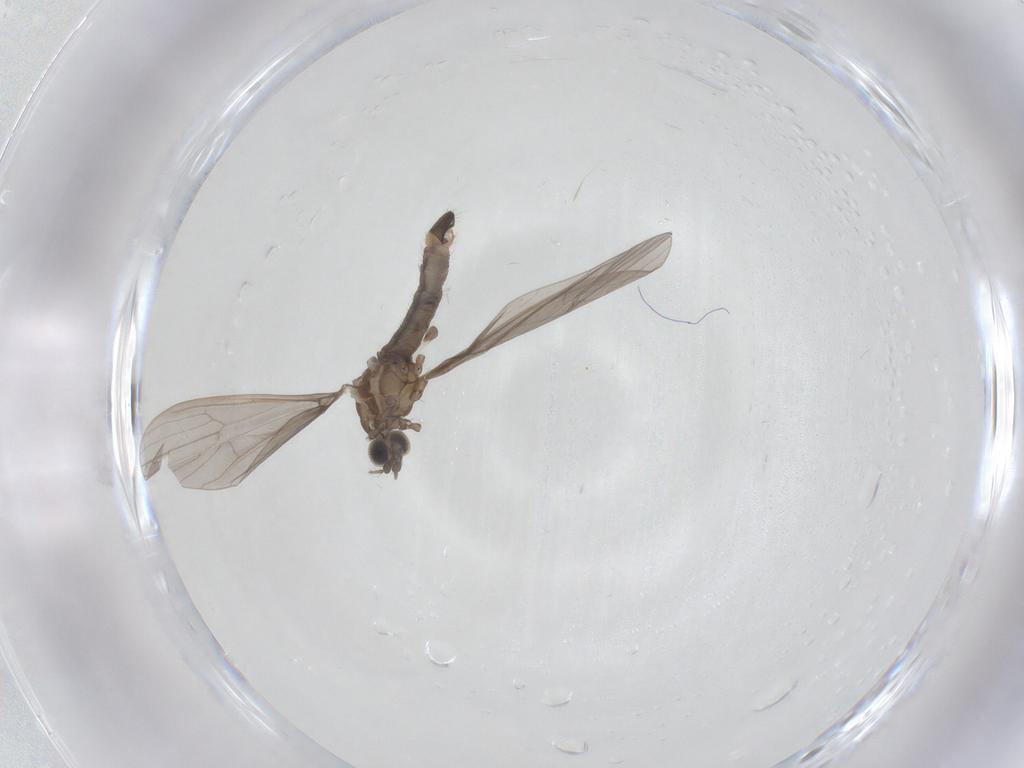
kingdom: Animalia
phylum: Arthropoda
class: Insecta
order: Diptera
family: Limoniidae
